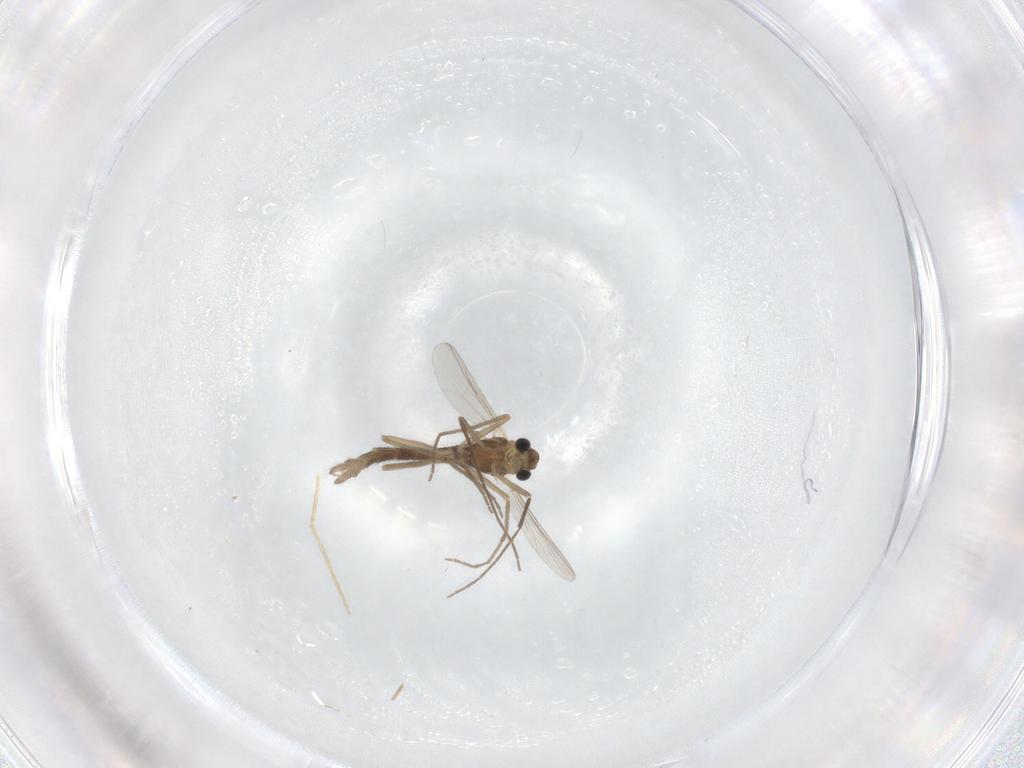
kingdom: Animalia
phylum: Arthropoda
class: Insecta
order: Diptera
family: Chironomidae
